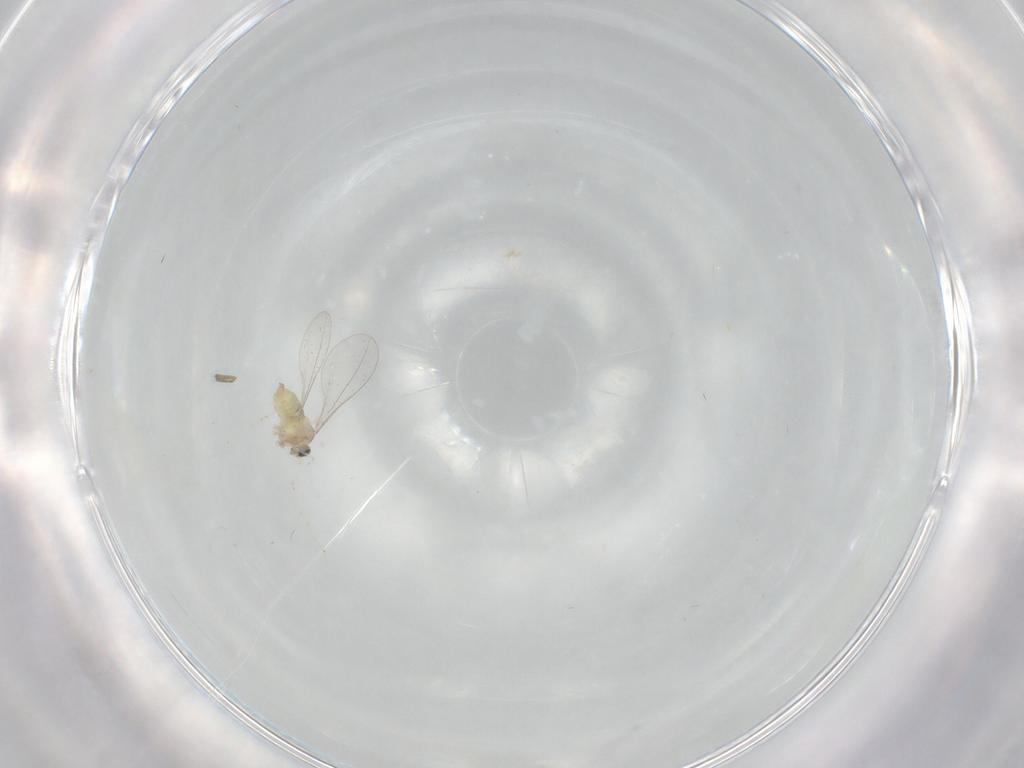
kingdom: Animalia
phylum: Arthropoda
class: Insecta
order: Diptera
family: Cecidomyiidae
